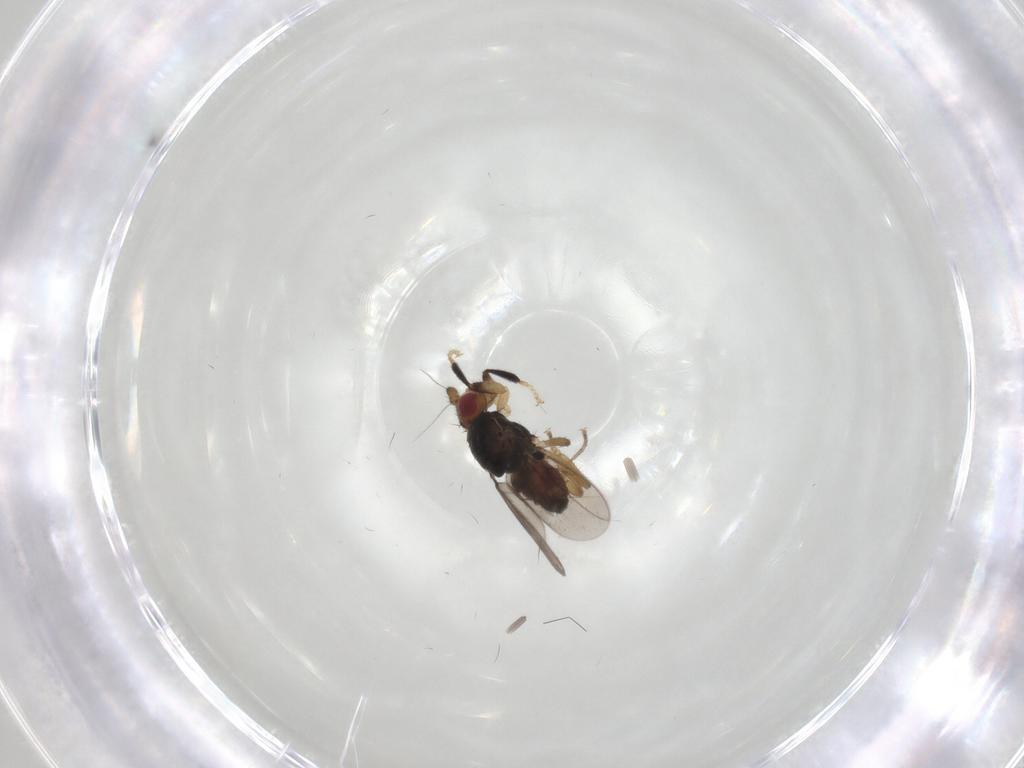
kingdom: Animalia
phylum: Arthropoda
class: Insecta
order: Diptera
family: Sphaeroceridae
